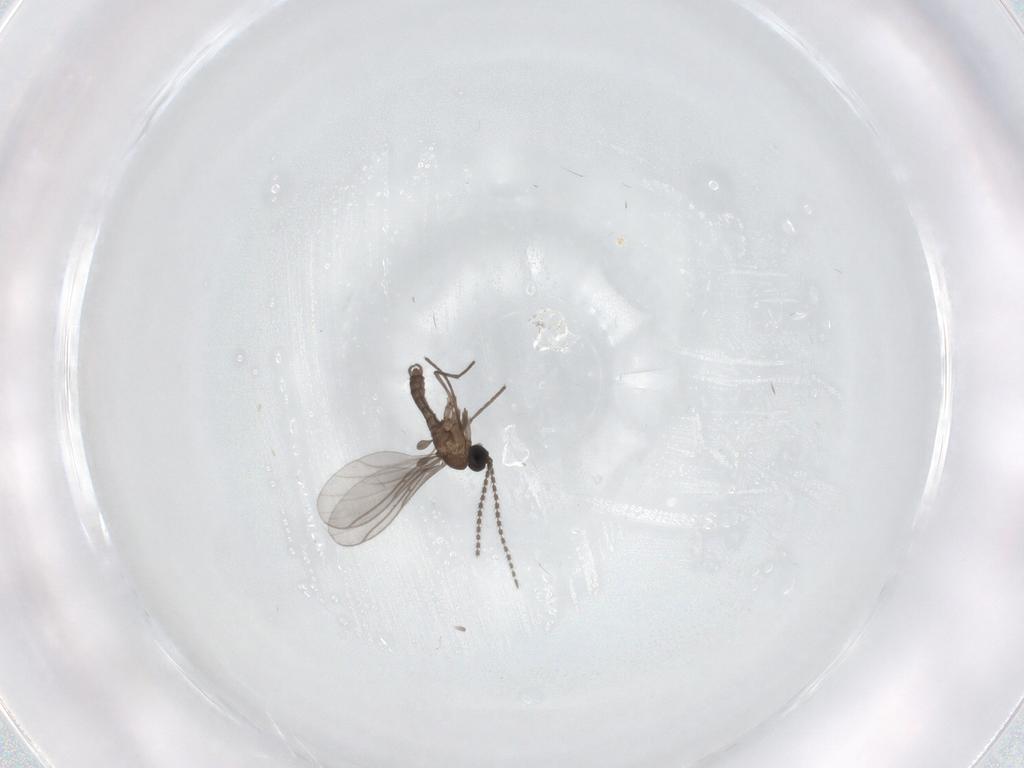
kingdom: Animalia
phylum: Arthropoda
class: Insecta
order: Diptera
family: Sciaridae
